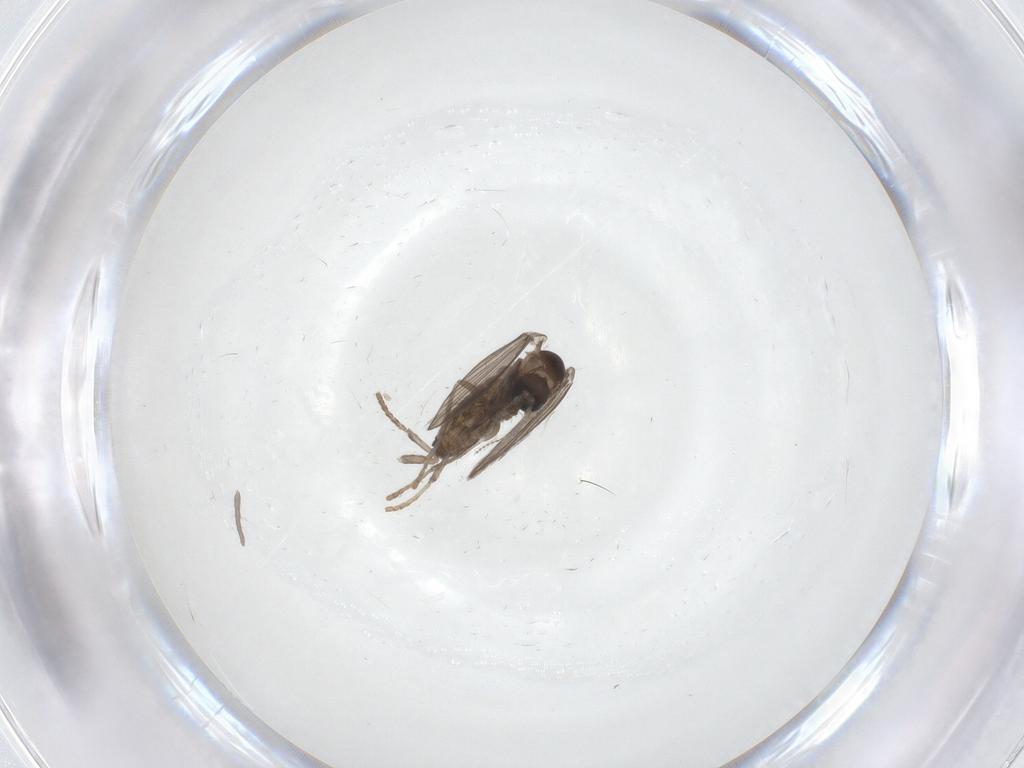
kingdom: Animalia
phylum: Arthropoda
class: Insecta
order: Diptera
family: Psychodidae
